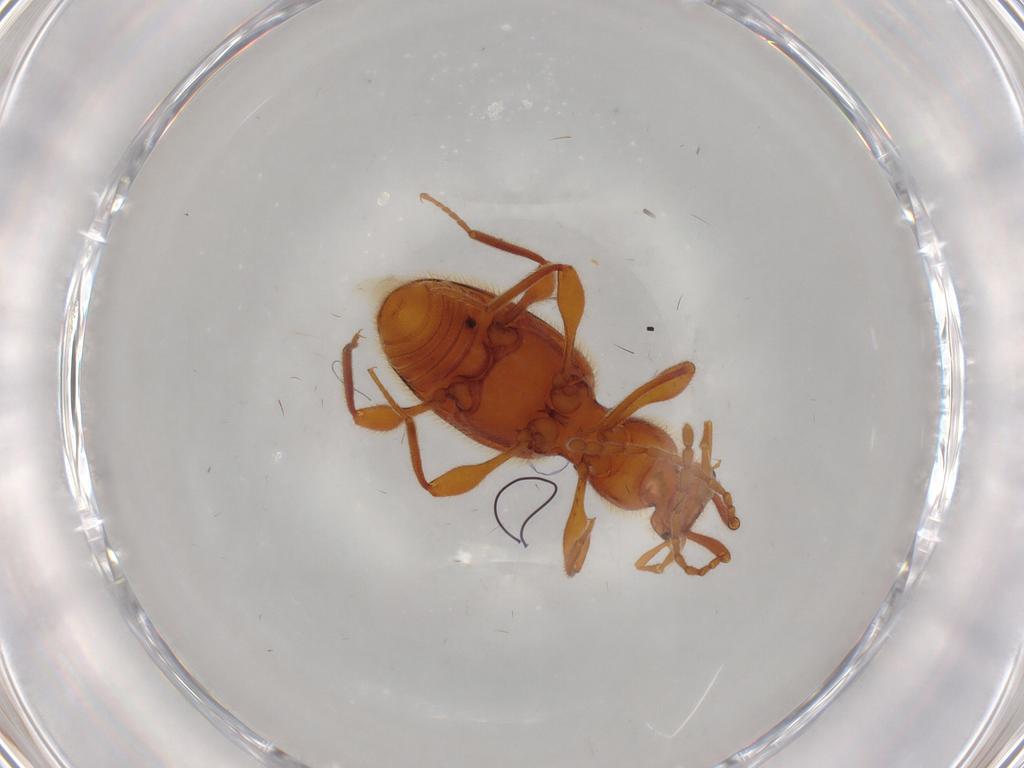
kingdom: Animalia
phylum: Arthropoda
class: Insecta
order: Coleoptera
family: Staphylinidae
